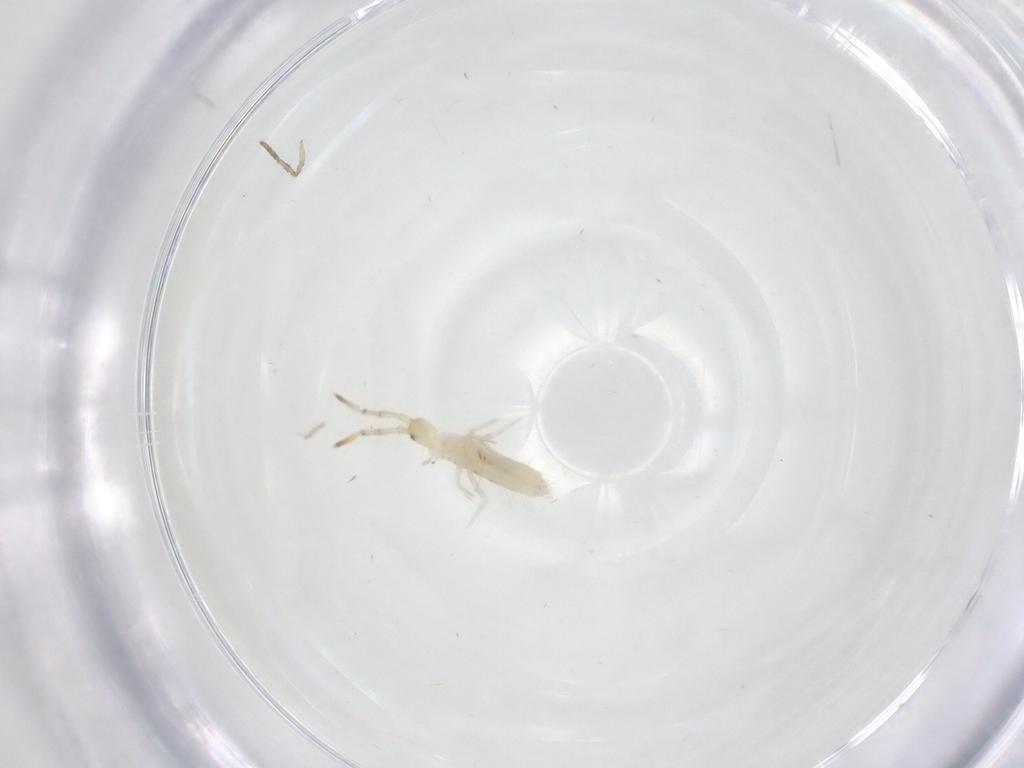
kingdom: Animalia
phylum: Arthropoda
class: Collembola
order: Entomobryomorpha
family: Entomobryidae
